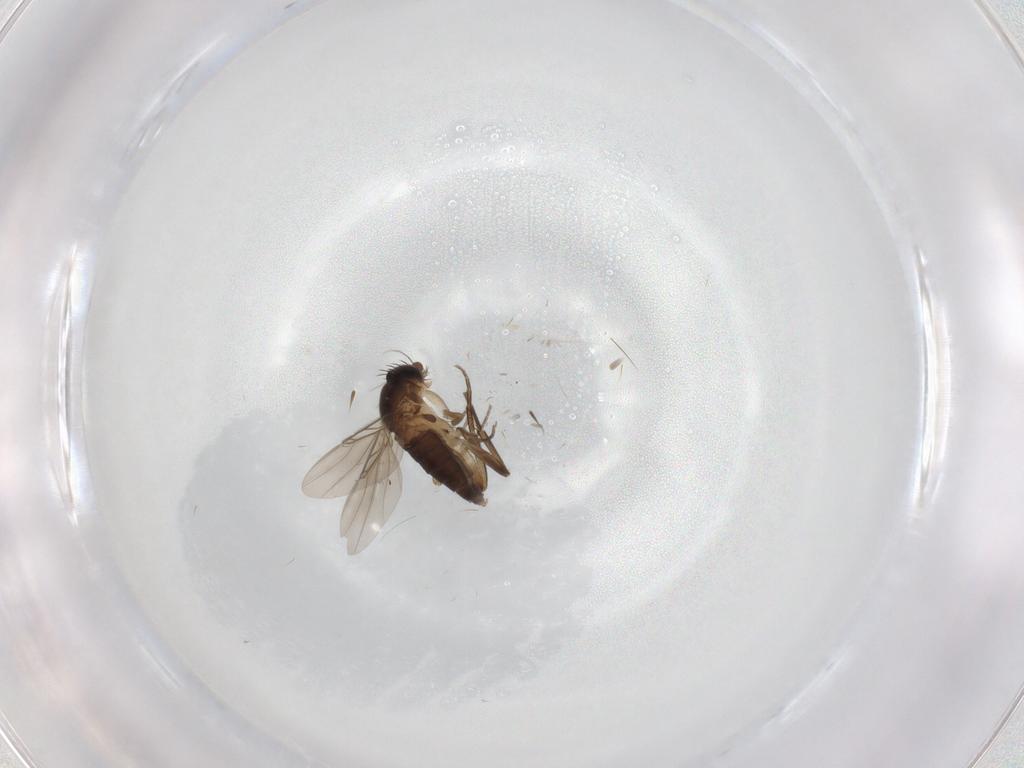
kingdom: Animalia
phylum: Arthropoda
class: Insecta
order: Diptera
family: Phoridae
